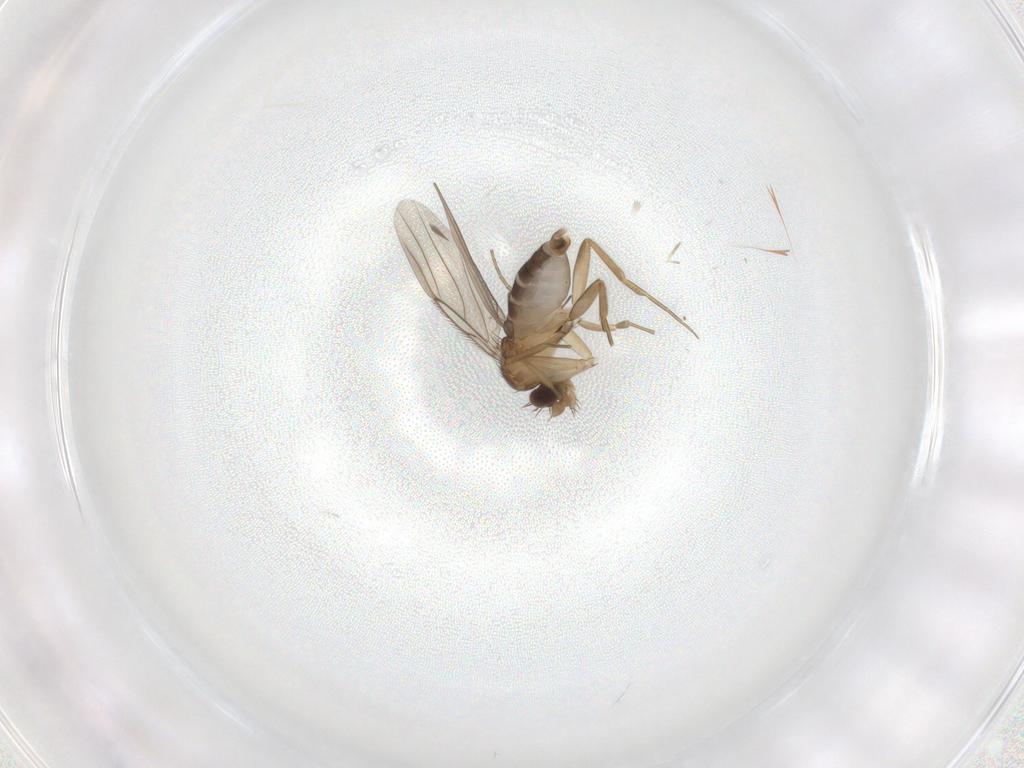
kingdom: Animalia
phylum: Arthropoda
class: Insecta
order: Diptera
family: Phoridae
